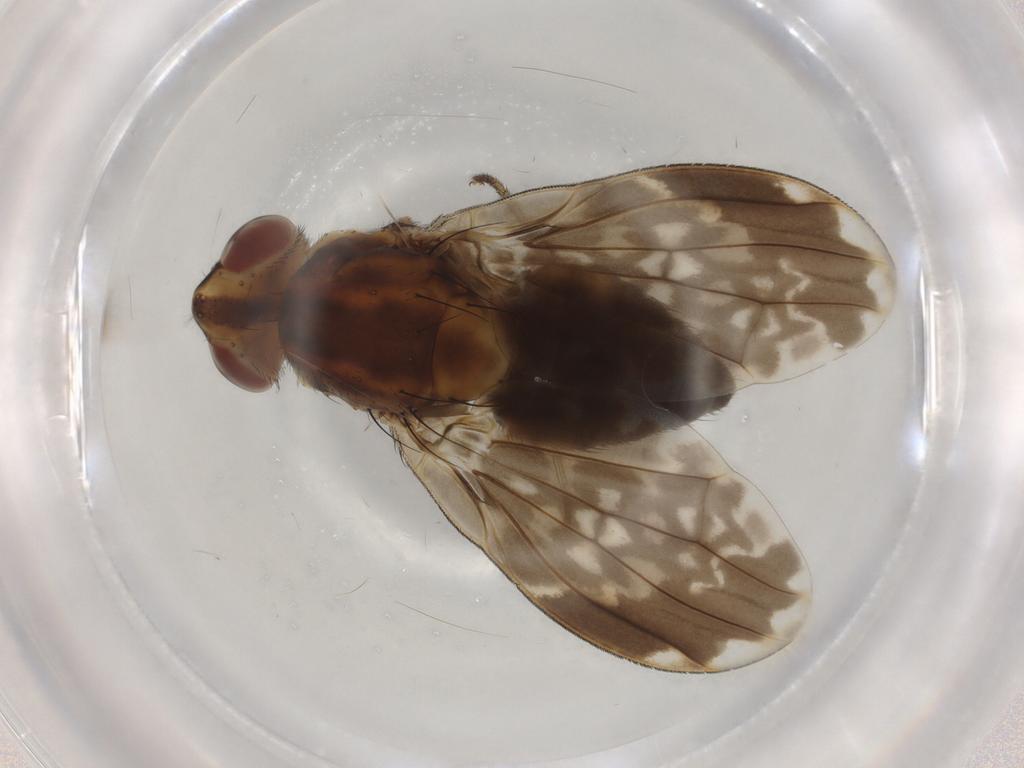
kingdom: Animalia
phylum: Arthropoda
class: Insecta
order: Diptera
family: Psychodidae
